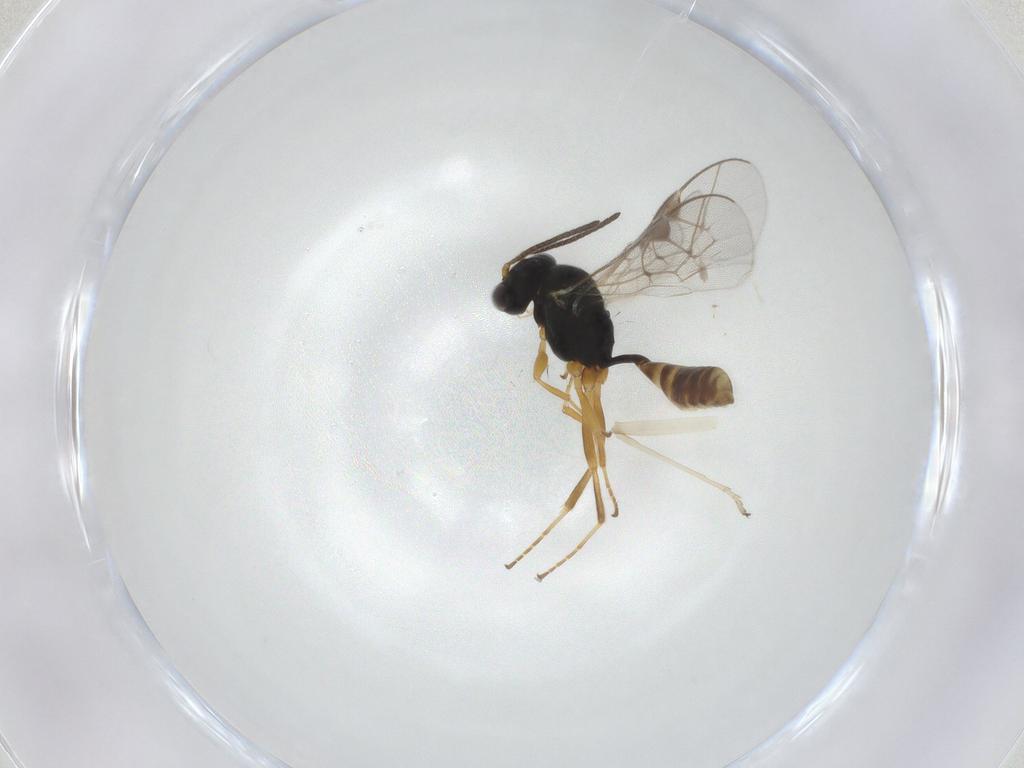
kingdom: Animalia
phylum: Arthropoda
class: Insecta
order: Hymenoptera
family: Ichneumonidae
